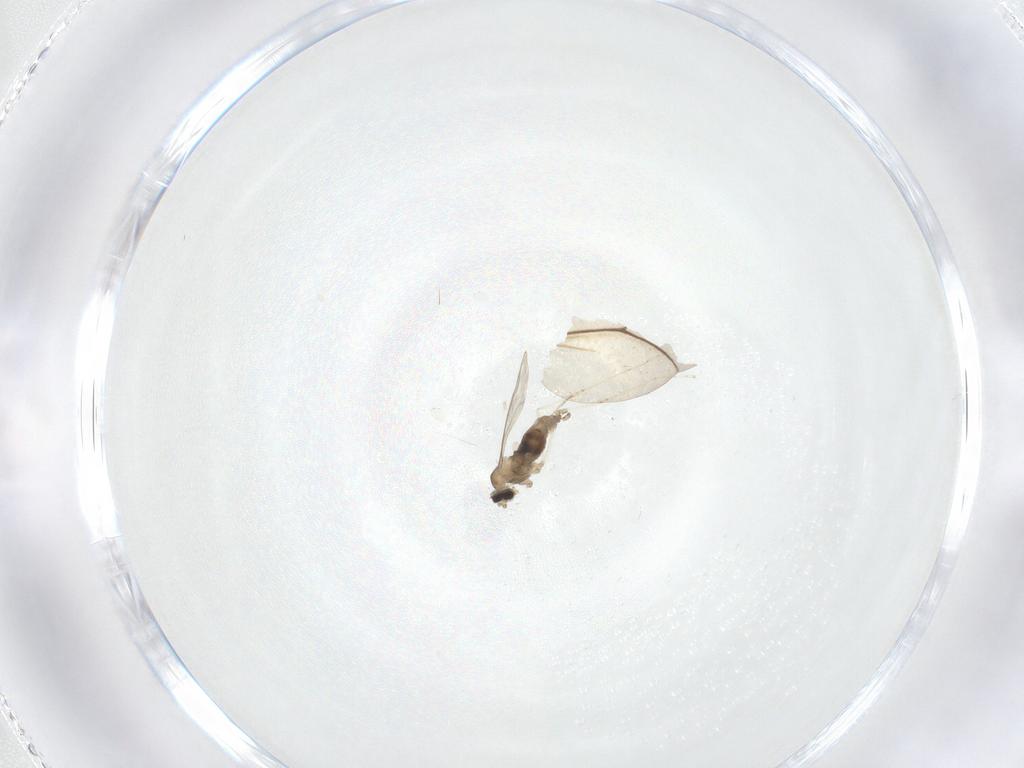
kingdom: Animalia
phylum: Arthropoda
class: Insecta
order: Diptera
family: Cecidomyiidae
